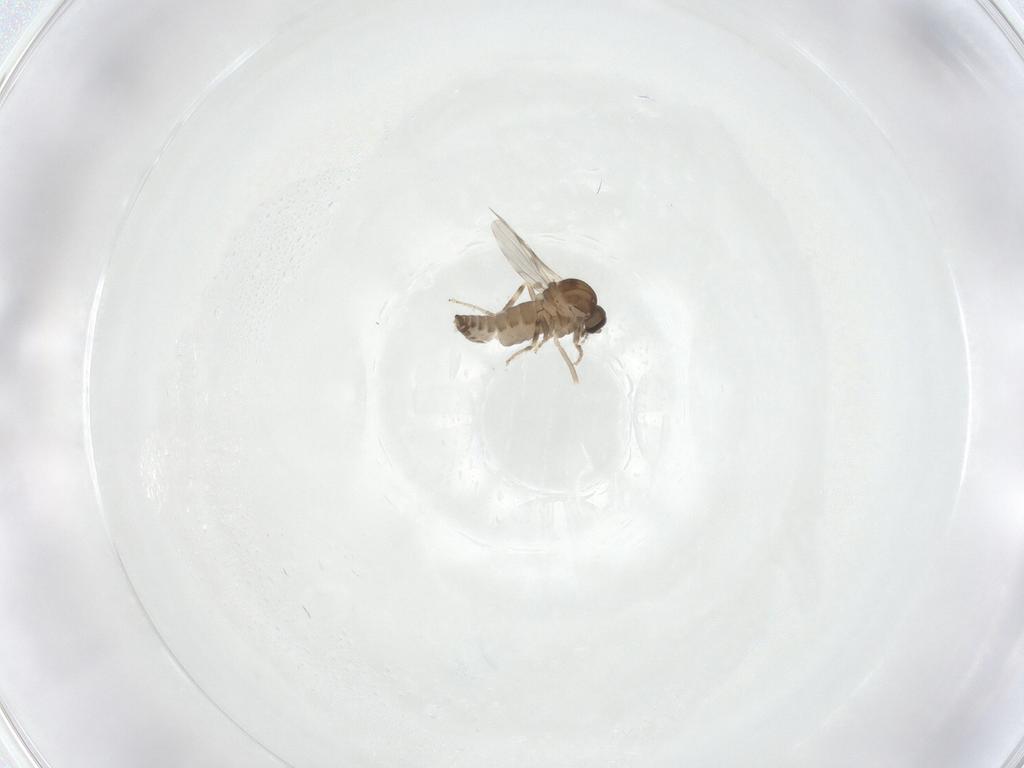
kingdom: Animalia
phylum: Arthropoda
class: Insecta
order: Diptera
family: Ceratopogonidae
